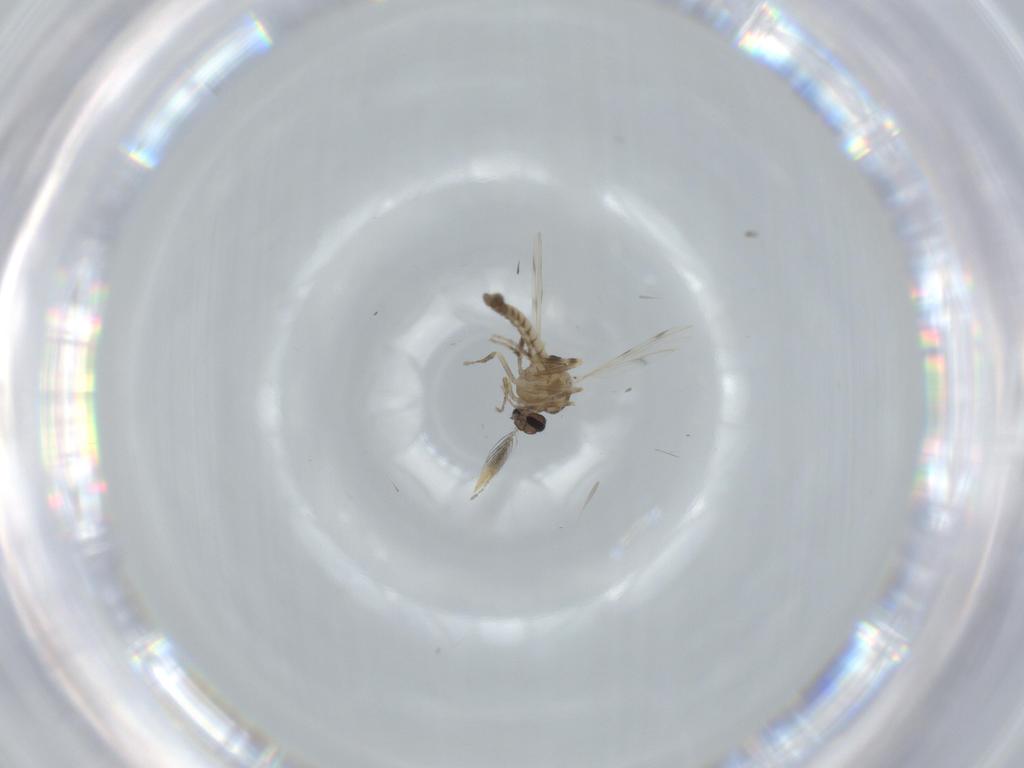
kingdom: Animalia
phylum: Arthropoda
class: Insecta
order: Diptera
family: Ceratopogonidae
